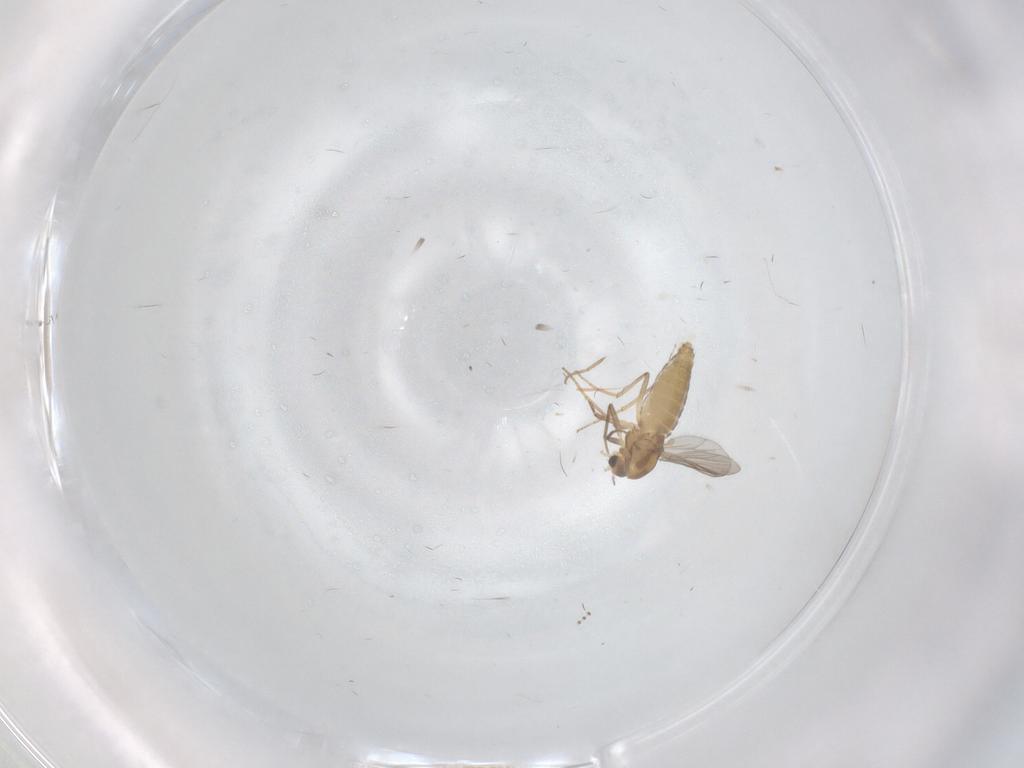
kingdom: Animalia
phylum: Arthropoda
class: Insecta
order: Diptera
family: Chironomidae
